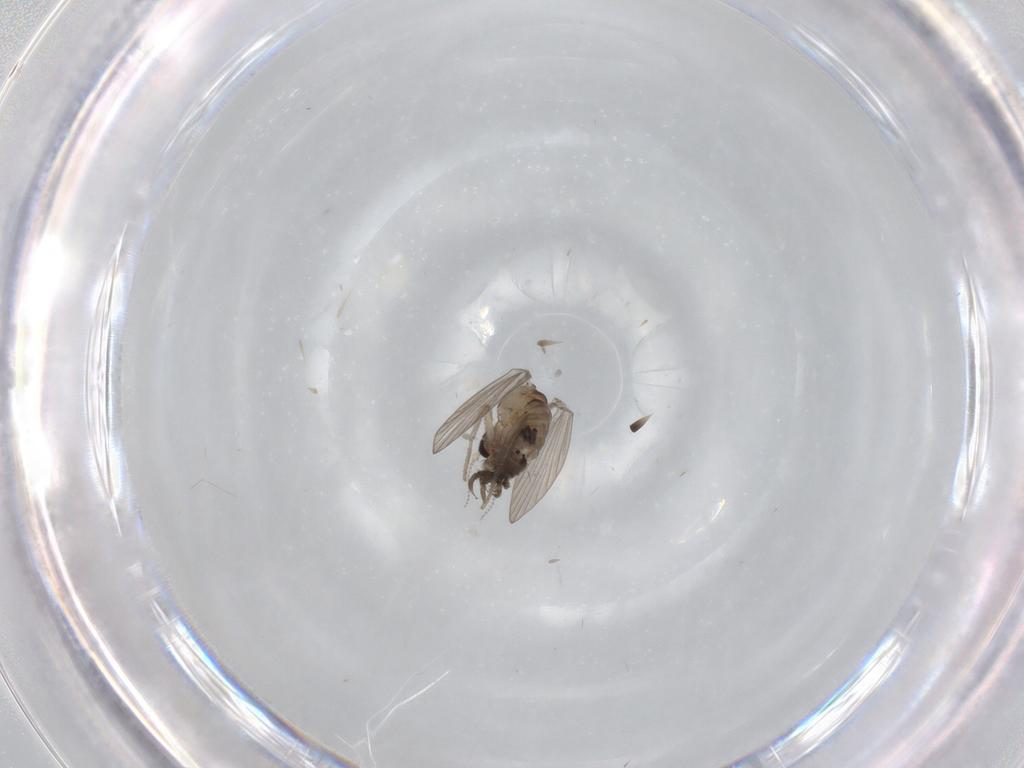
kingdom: Animalia
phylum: Arthropoda
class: Insecta
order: Diptera
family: Psychodidae
